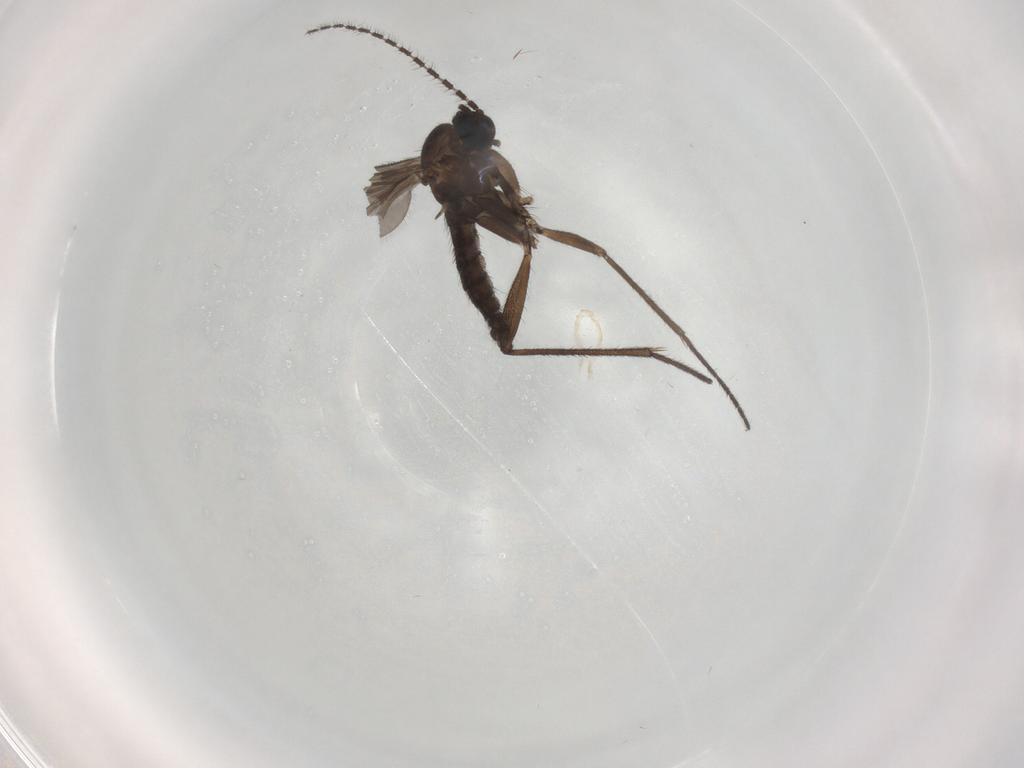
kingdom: Animalia
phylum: Arthropoda
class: Insecta
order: Diptera
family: Sciaridae
